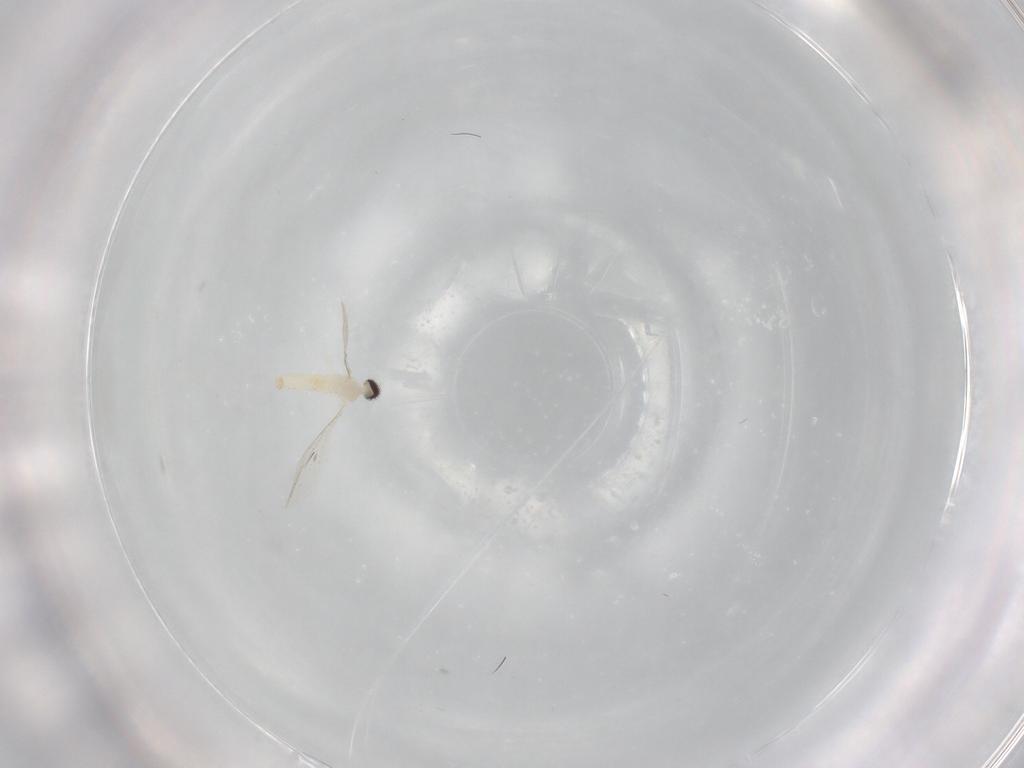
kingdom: Animalia
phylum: Arthropoda
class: Insecta
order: Diptera
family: Cecidomyiidae
